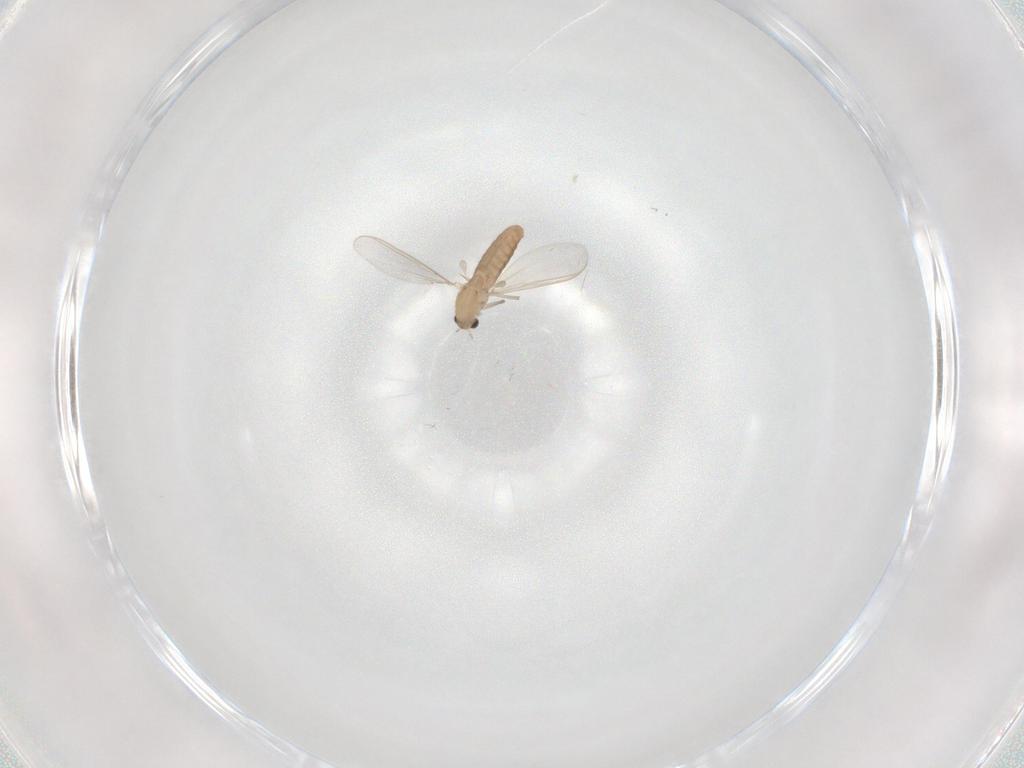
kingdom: Animalia
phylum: Arthropoda
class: Insecta
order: Diptera
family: Chironomidae
